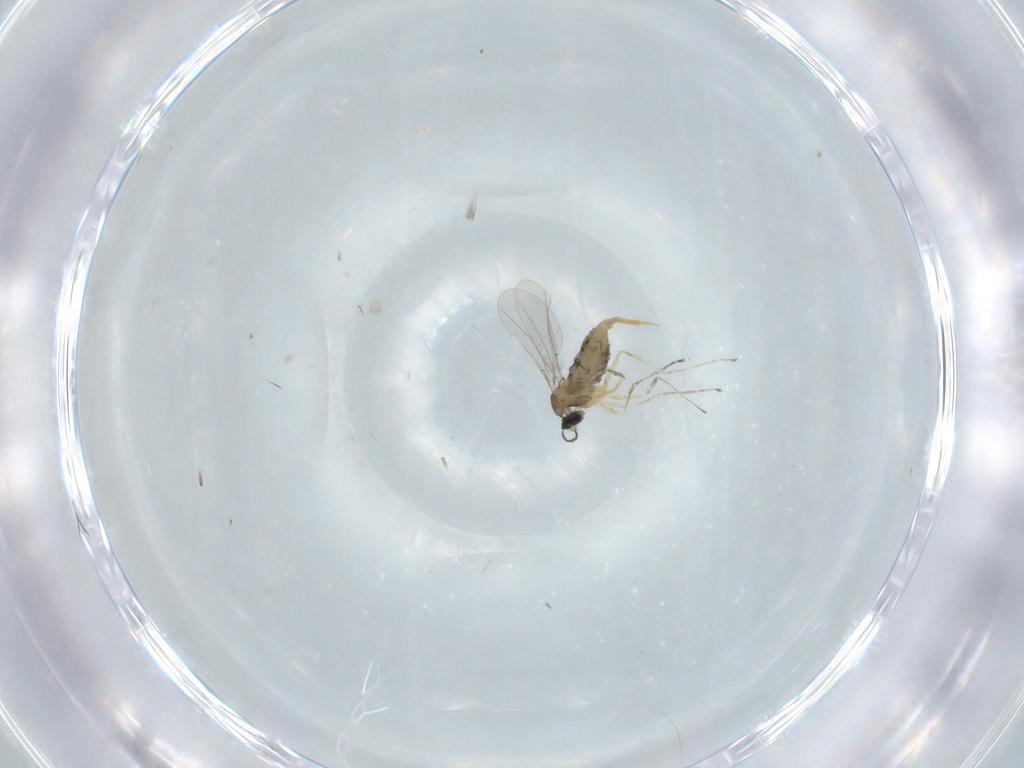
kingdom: Animalia
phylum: Arthropoda
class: Insecta
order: Diptera
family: Cecidomyiidae
